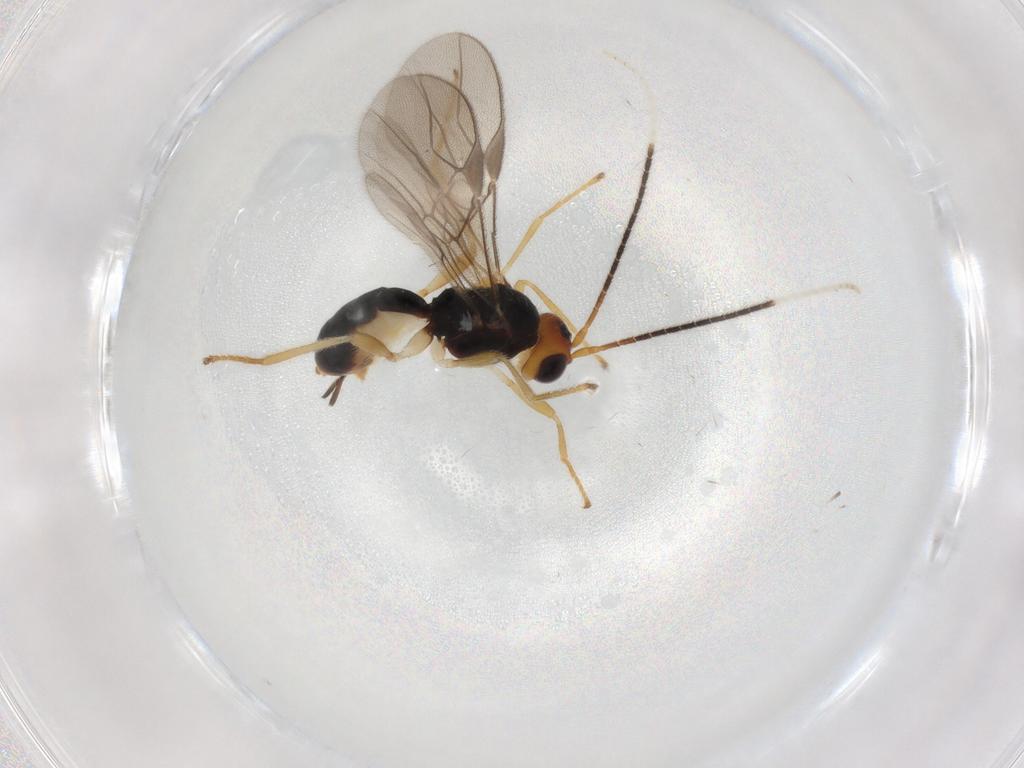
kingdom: Animalia
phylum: Arthropoda
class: Insecta
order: Hymenoptera
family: Braconidae
